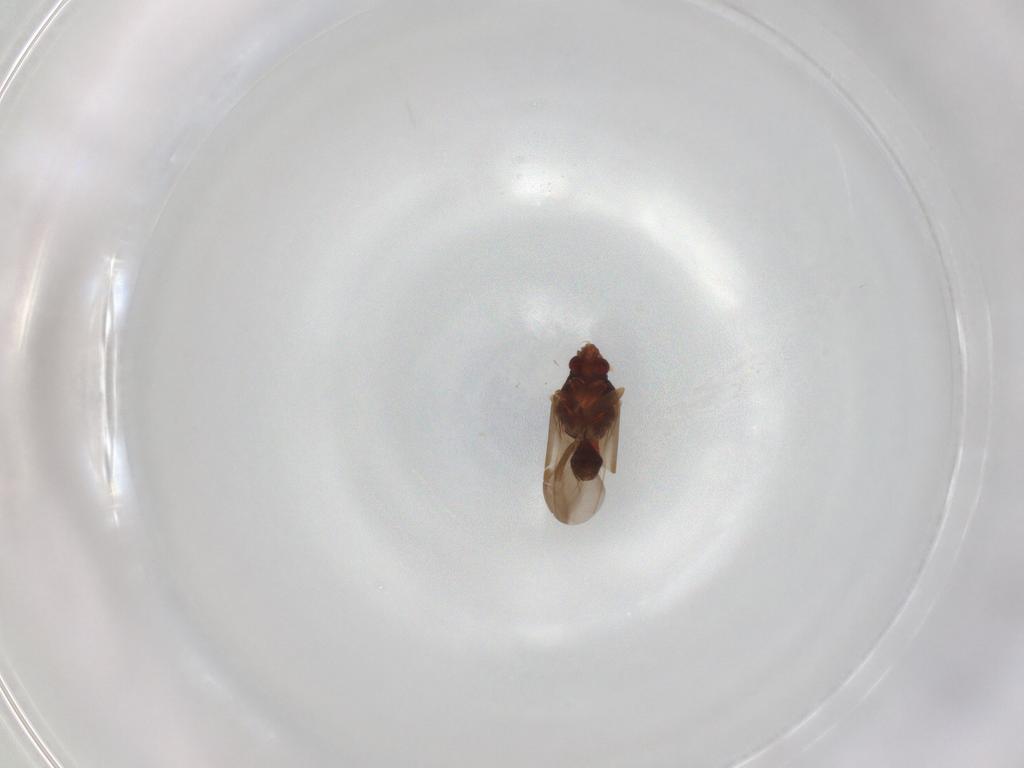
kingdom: Animalia
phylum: Arthropoda
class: Insecta
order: Hemiptera
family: Ceratocombidae
